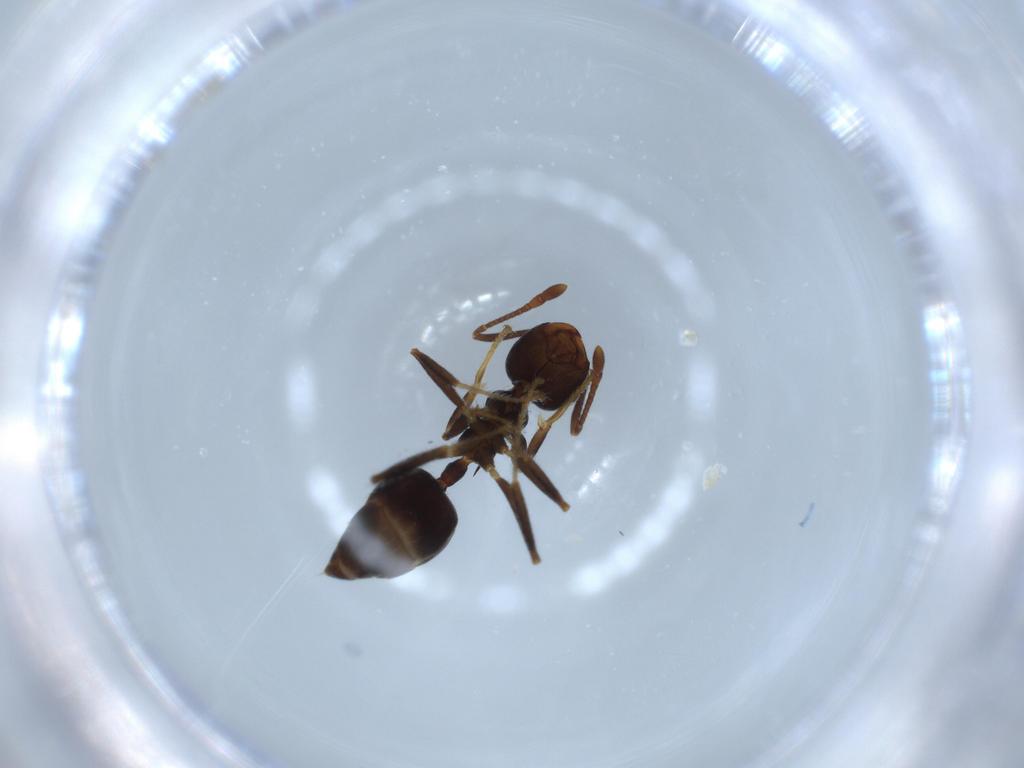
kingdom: Animalia
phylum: Arthropoda
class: Insecta
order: Hymenoptera
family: Formicidae
